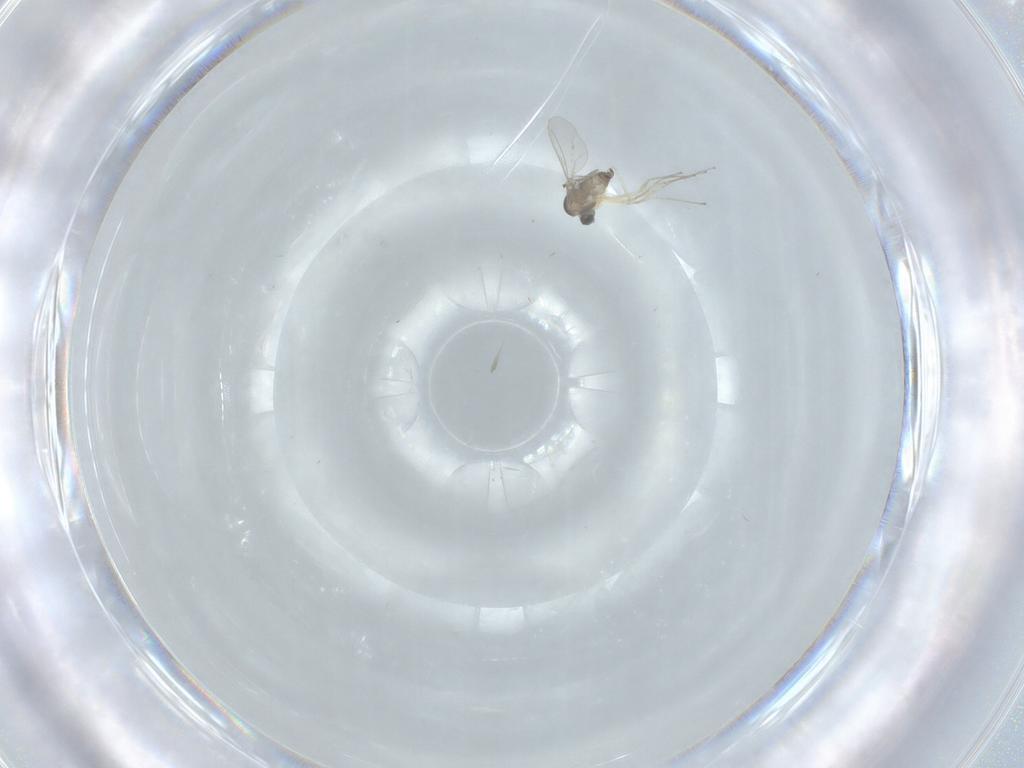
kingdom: Animalia
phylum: Arthropoda
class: Insecta
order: Diptera
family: Cecidomyiidae
